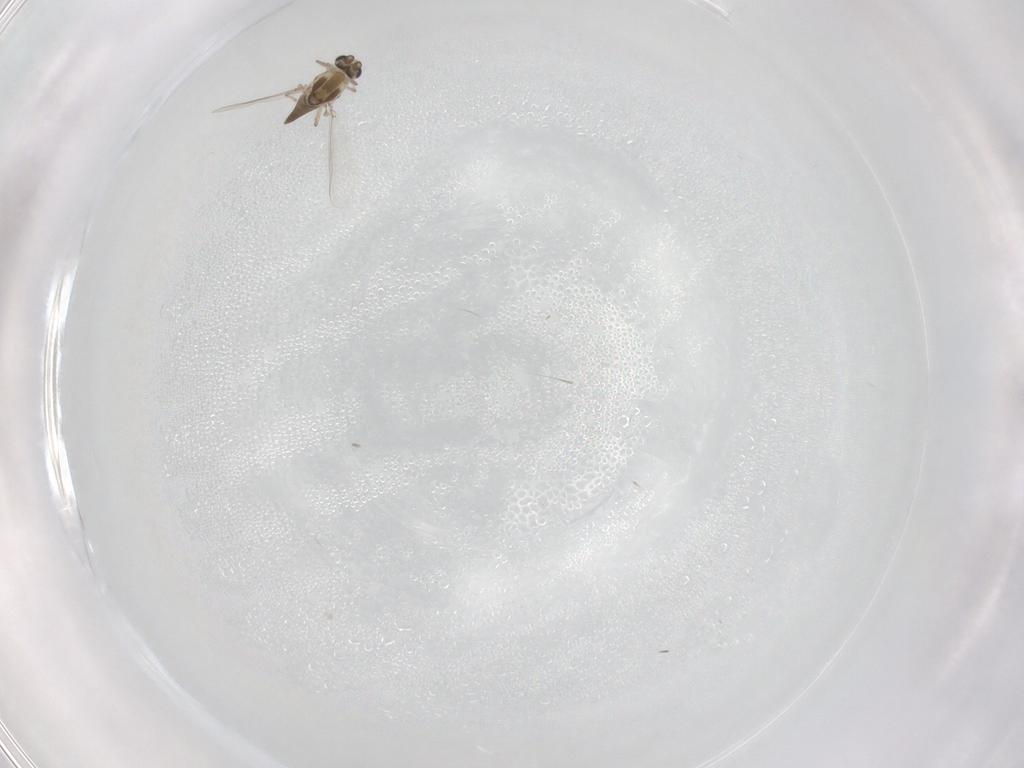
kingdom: Animalia
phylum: Arthropoda
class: Insecta
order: Diptera
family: Chironomidae
